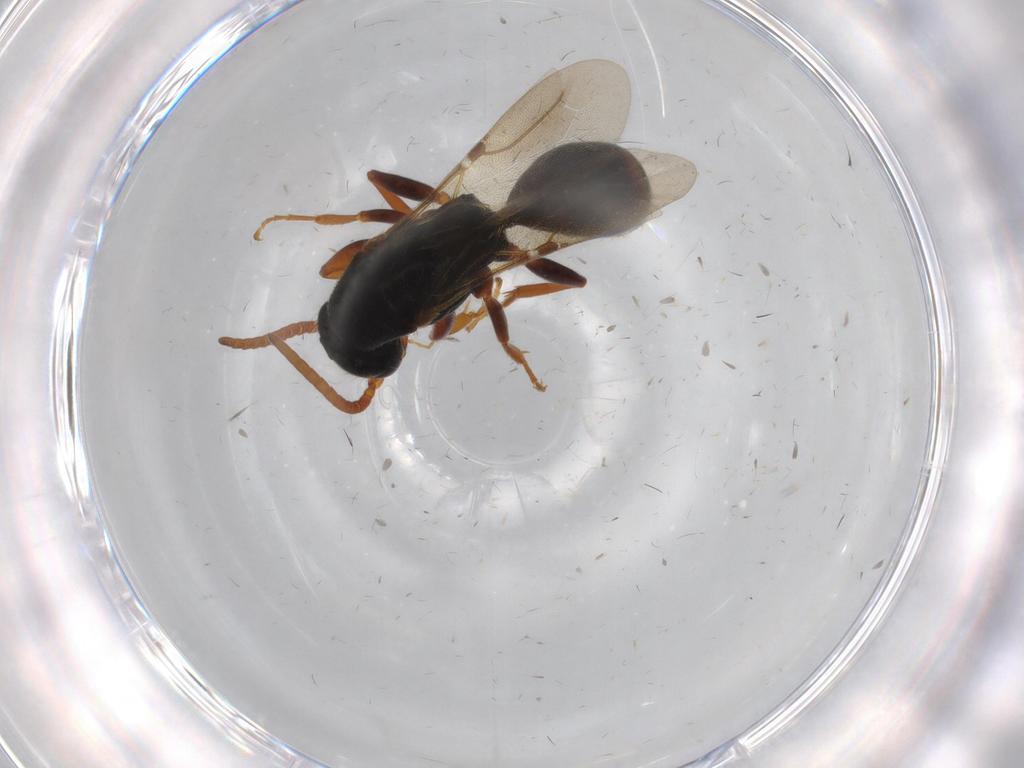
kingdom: Animalia
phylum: Arthropoda
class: Insecta
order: Hymenoptera
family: Bethylidae
